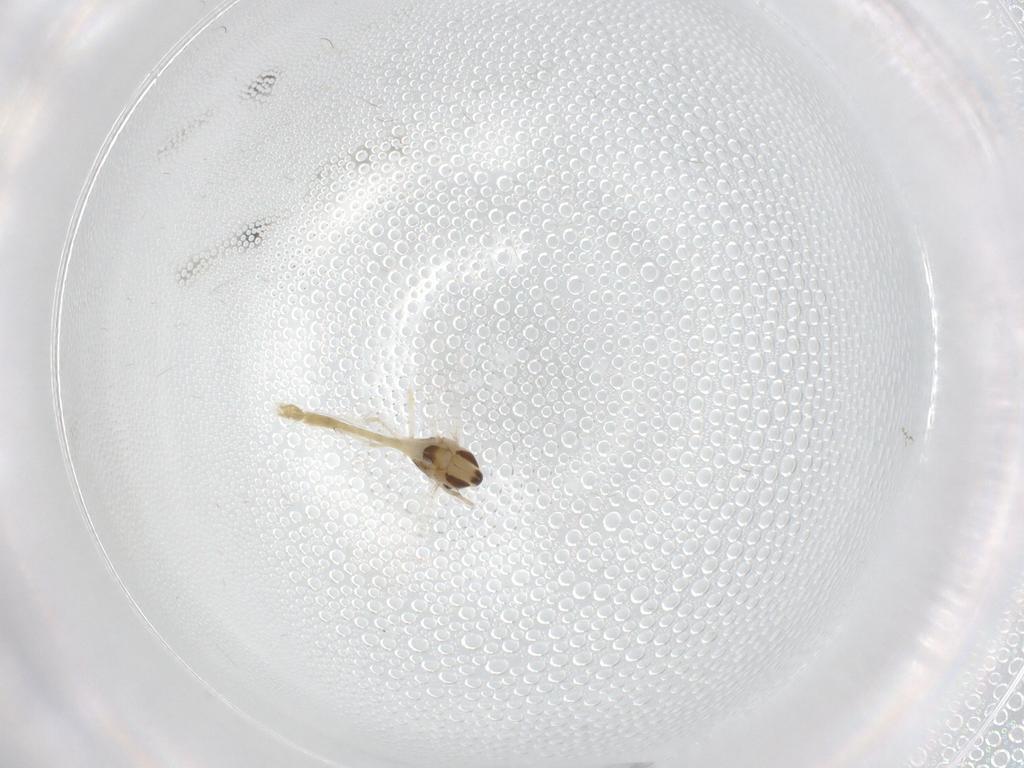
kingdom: Animalia
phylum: Arthropoda
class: Insecta
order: Diptera
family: Chironomidae
